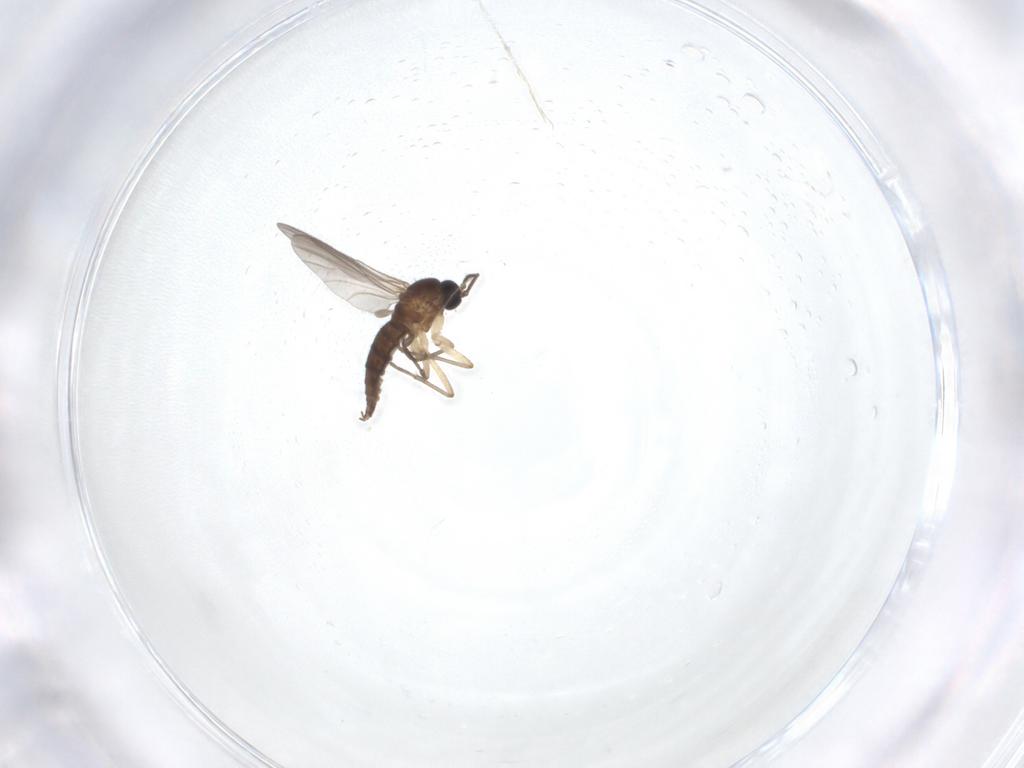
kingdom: Animalia
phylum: Arthropoda
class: Insecta
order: Diptera
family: Sciaridae
